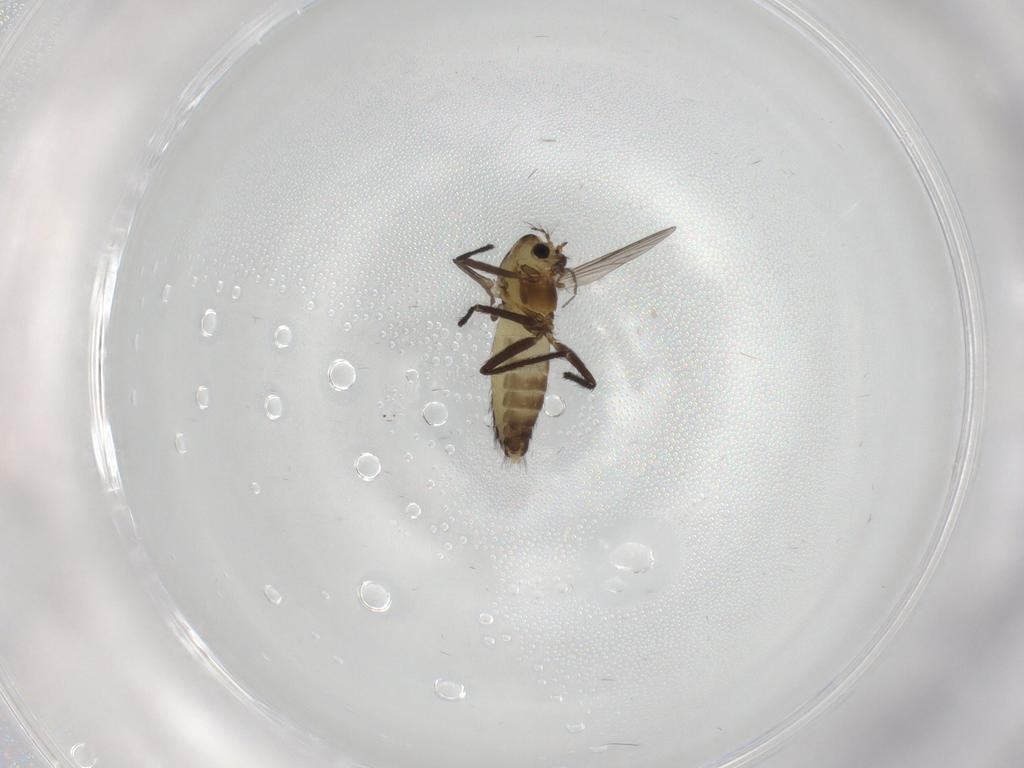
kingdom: Animalia
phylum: Arthropoda
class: Insecta
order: Diptera
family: Chironomidae
